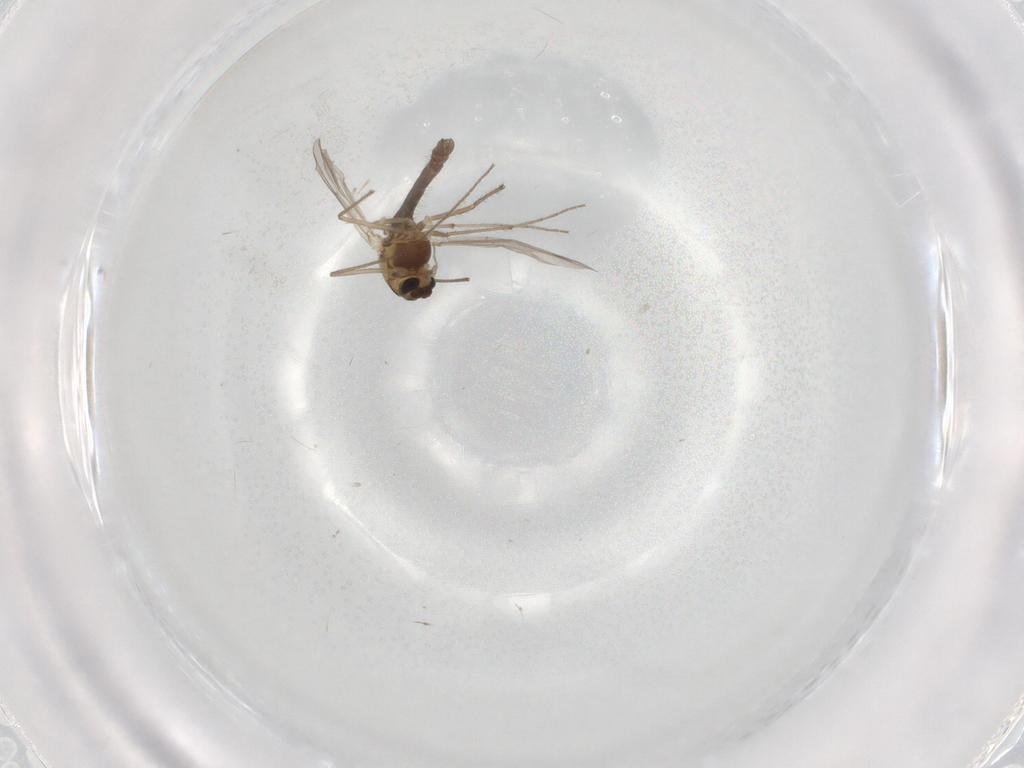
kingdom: Animalia
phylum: Arthropoda
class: Insecta
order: Diptera
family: Chironomidae
